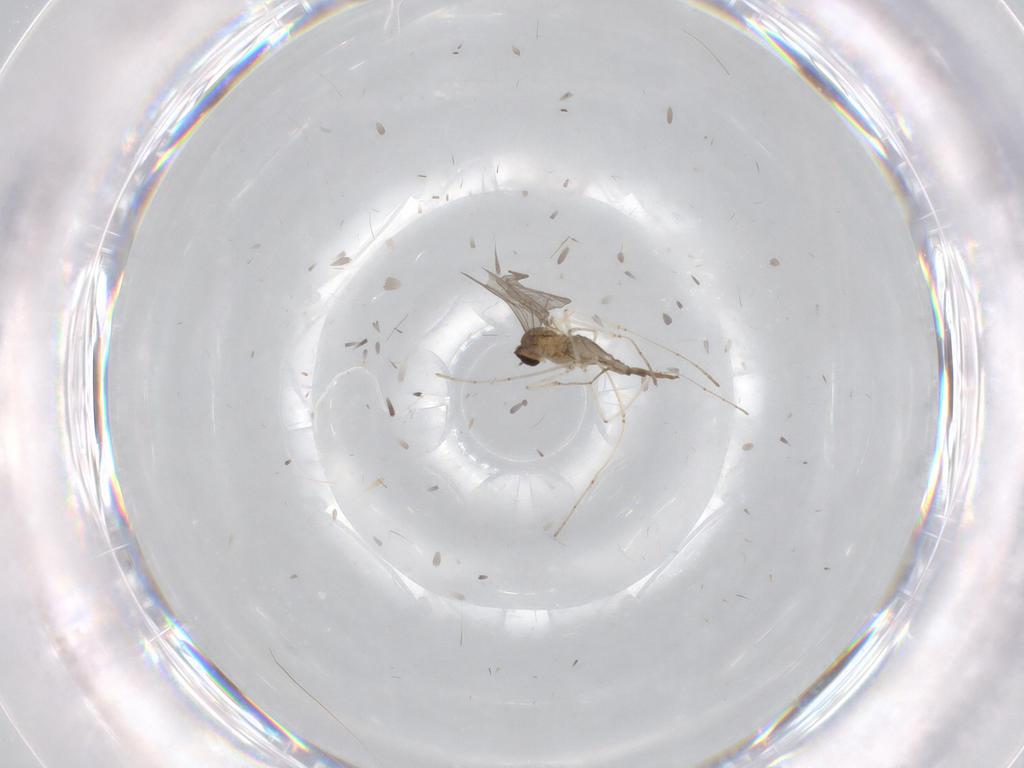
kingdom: Animalia
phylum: Arthropoda
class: Insecta
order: Diptera
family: Cecidomyiidae
